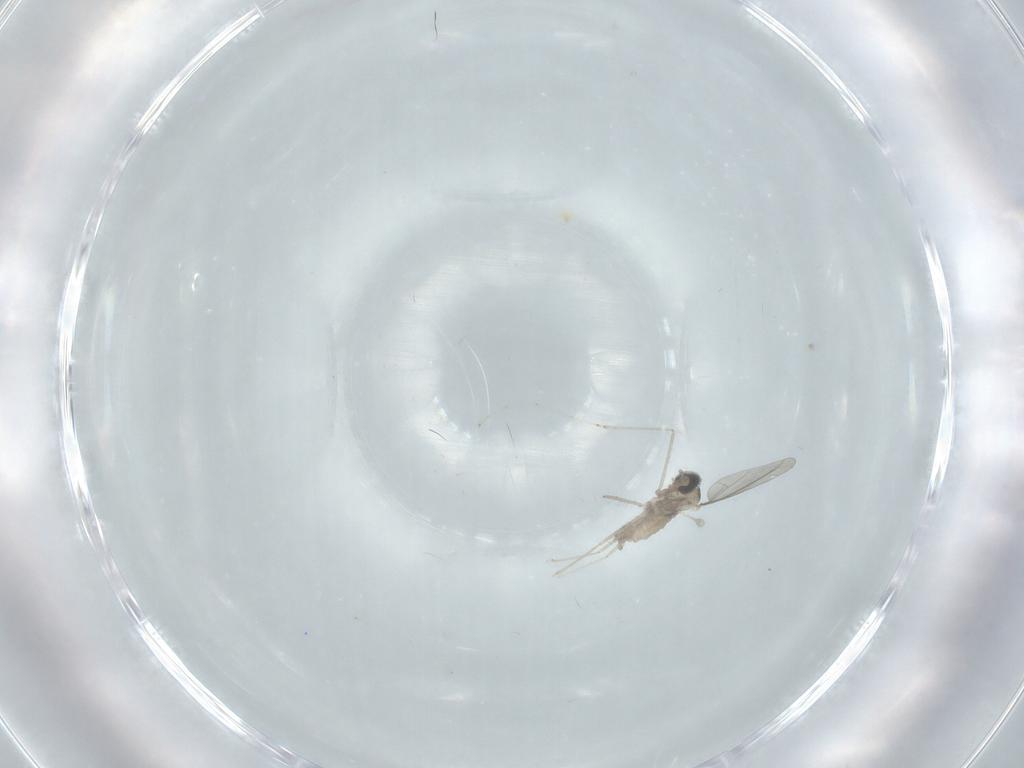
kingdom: Animalia
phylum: Arthropoda
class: Insecta
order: Diptera
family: Cecidomyiidae
